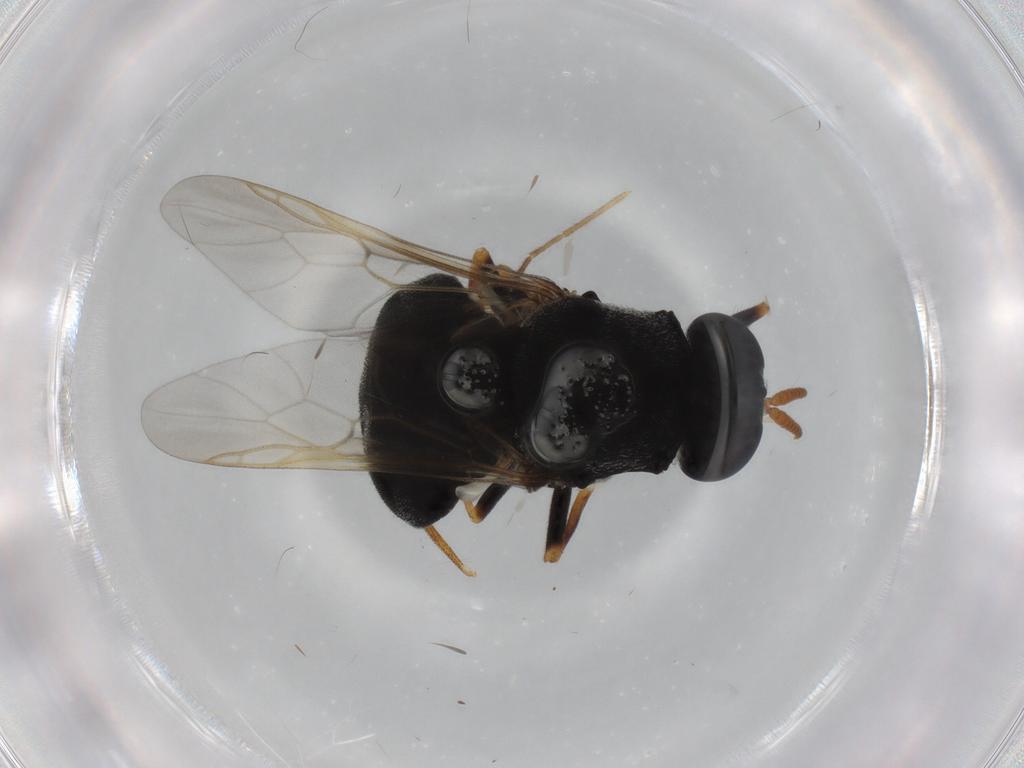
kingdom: Animalia
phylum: Arthropoda
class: Insecta
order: Diptera
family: Stratiomyidae
